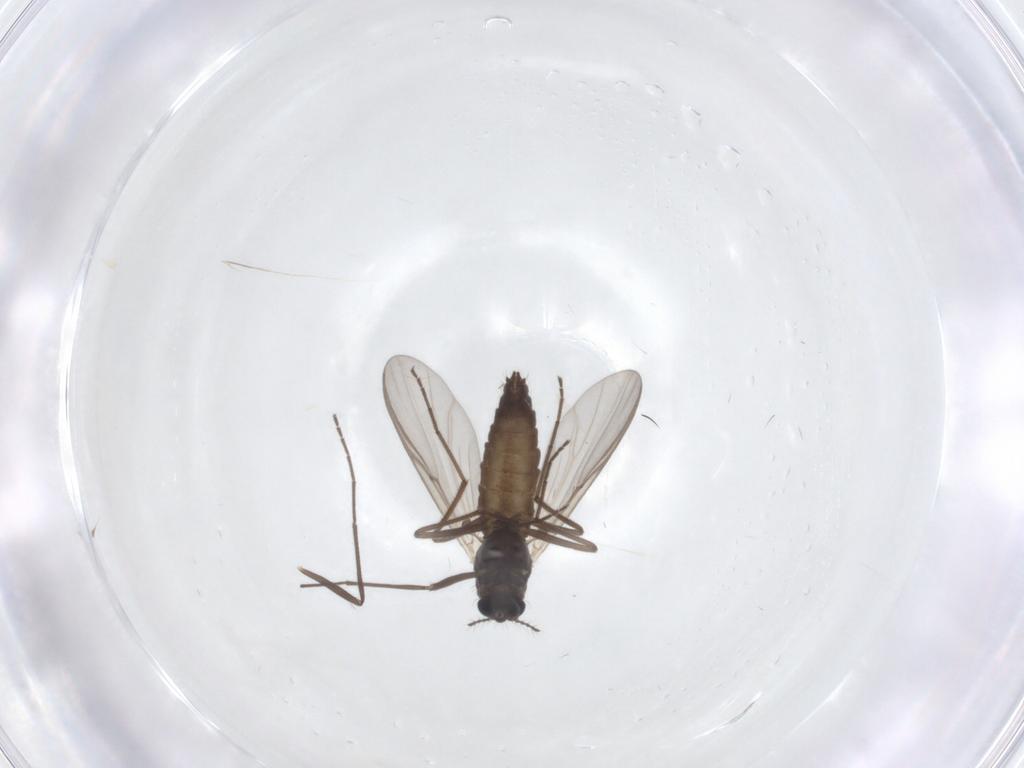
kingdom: Animalia
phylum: Arthropoda
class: Insecta
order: Diptera
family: Chironomidae
